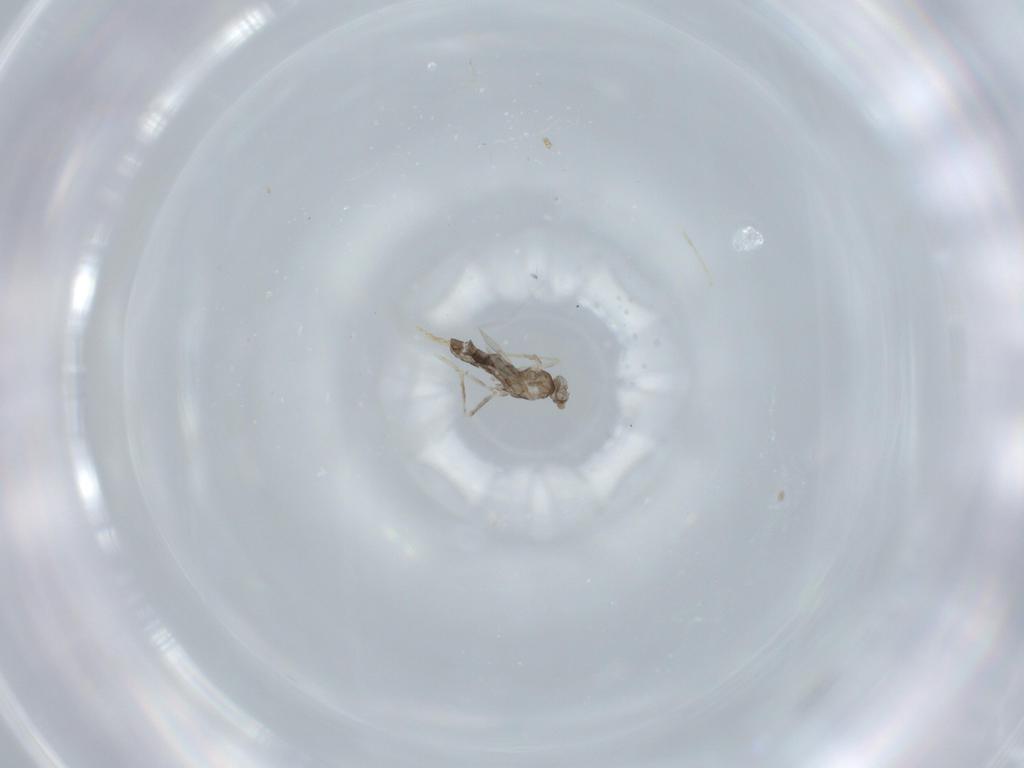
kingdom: Animalia
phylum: Arthropoda
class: Insecta
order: Diptera
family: Cecidomyiidae
